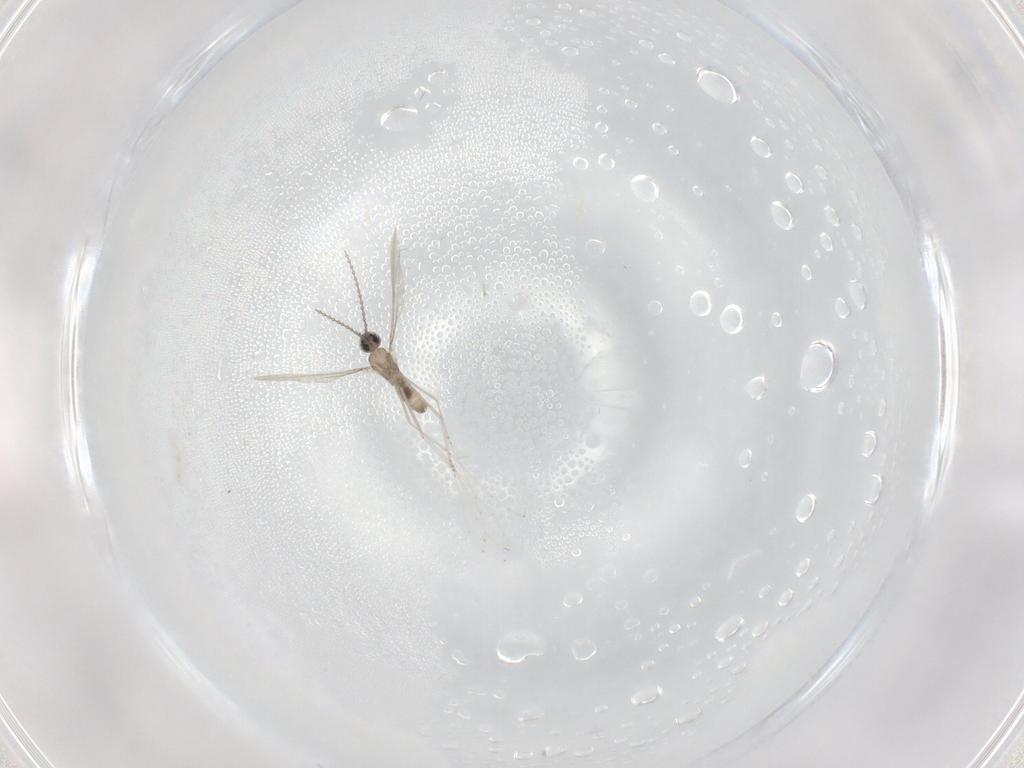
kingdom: Animalia
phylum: Arthropoda
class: Insecta
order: Diptera
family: Cecidomyiidae
